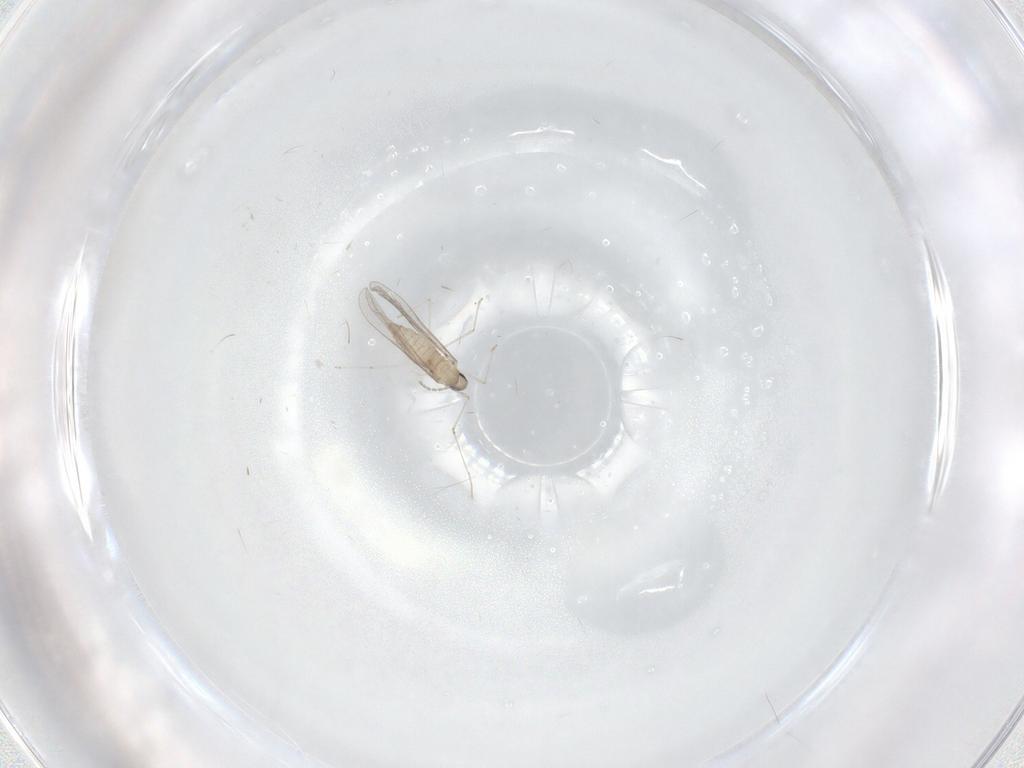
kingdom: Animalia
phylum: Arthropoda
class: Insecta
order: Diptera
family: Cecidomyiidae
